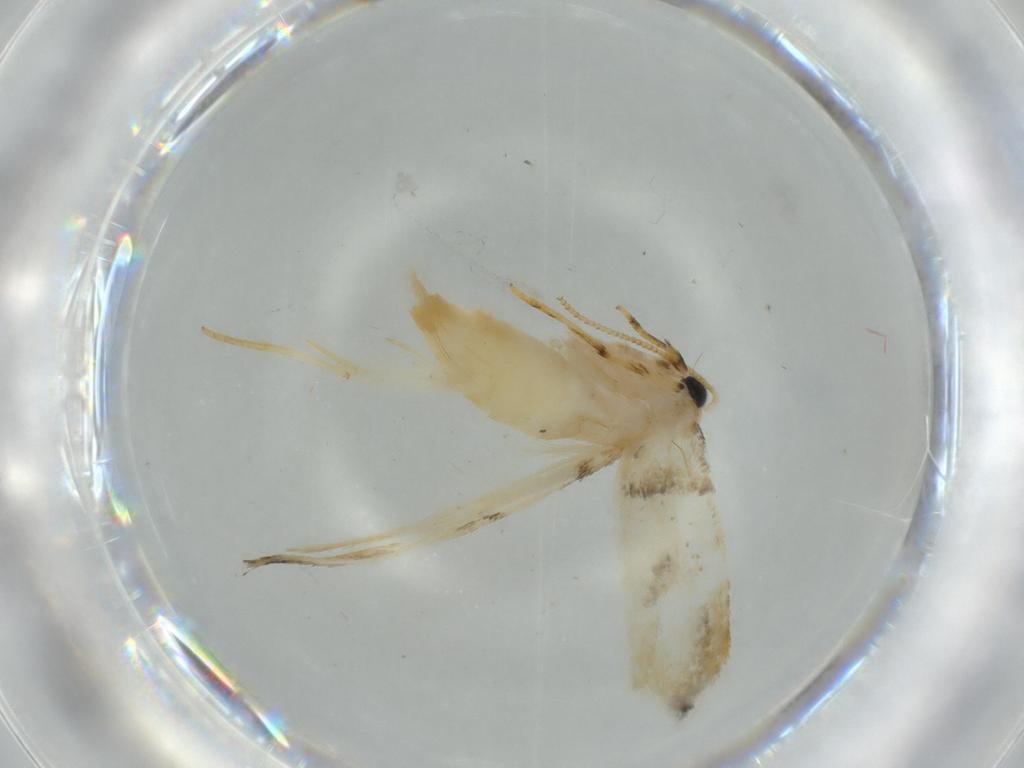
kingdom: Animalia
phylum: Arthropoda
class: Insecta
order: Lepidoptera
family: Tineidae
